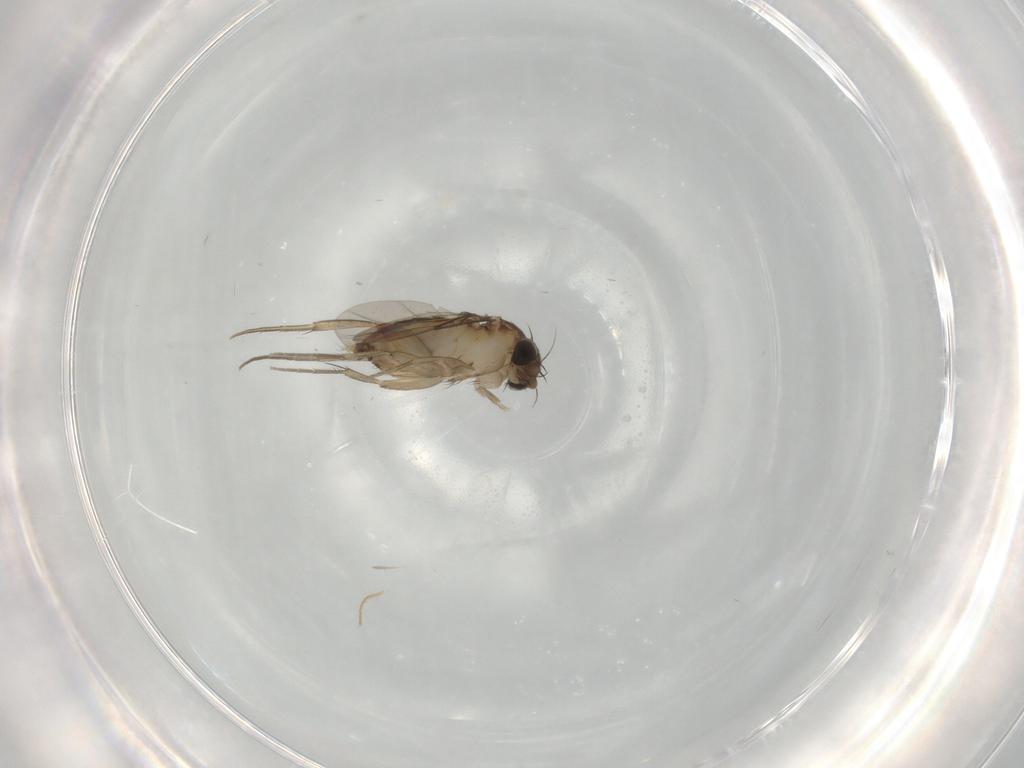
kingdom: Animalia
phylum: Arthropoda
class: Insecta
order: Diptera
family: Phoridae
